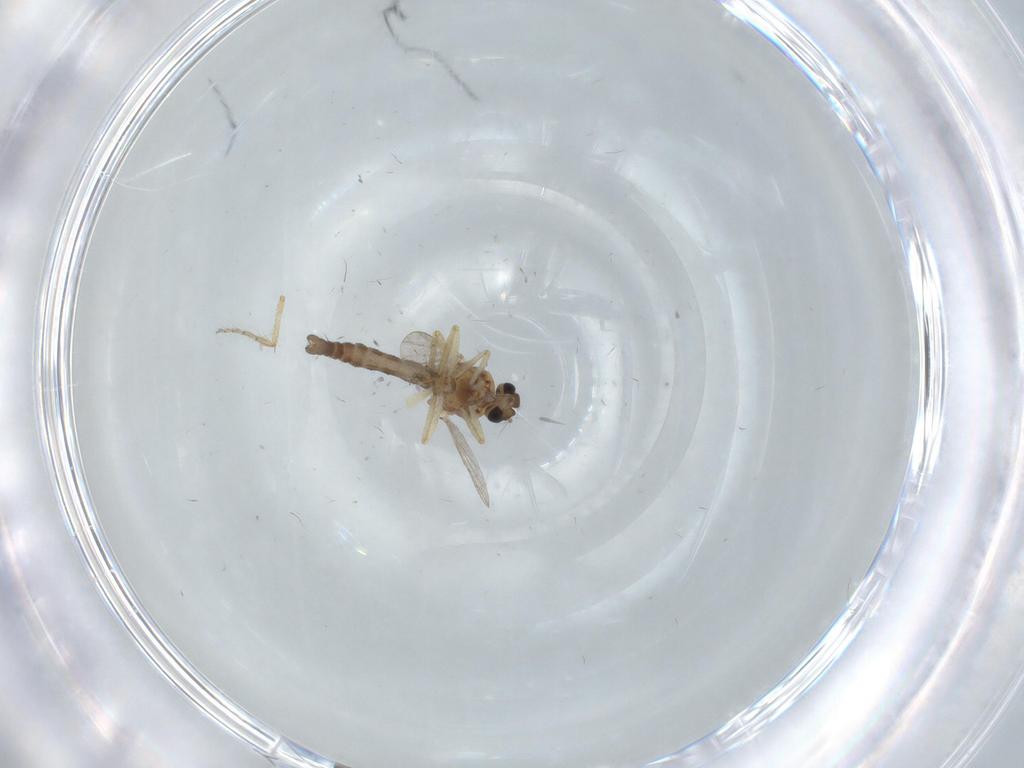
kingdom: Animalia
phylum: Arthropoda
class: Insecta
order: Diptera
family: Ceratopogonidae
